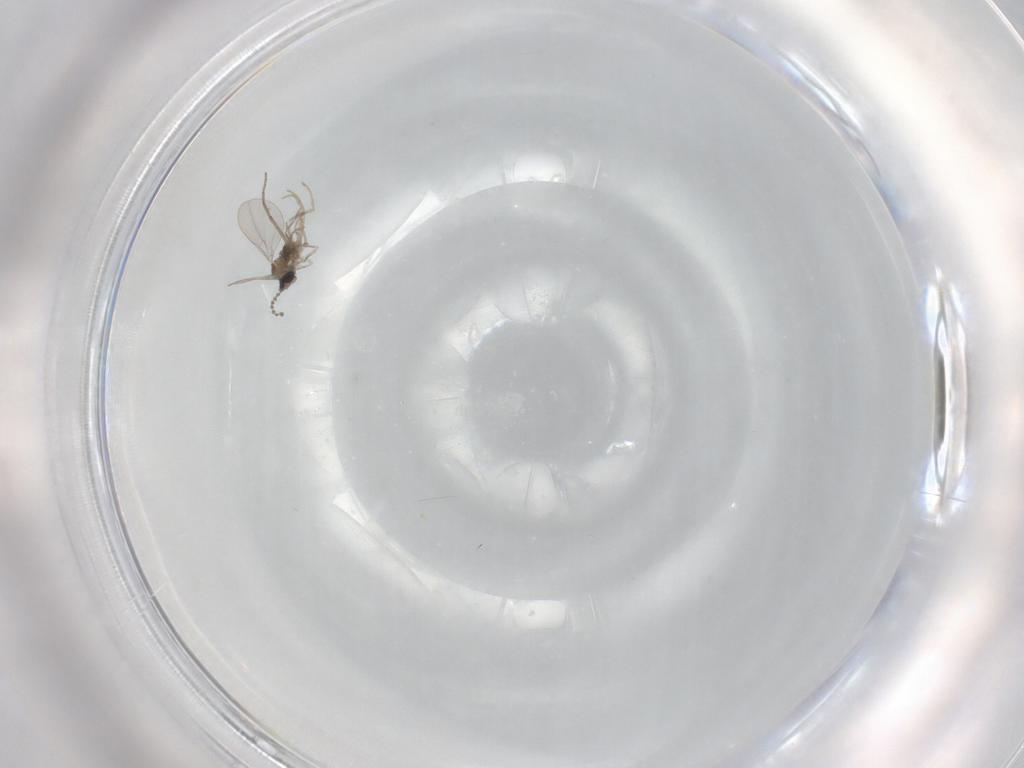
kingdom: Animalia
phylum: Arthropoda
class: Insecta
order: Diptera
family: Cecidomyiidae
